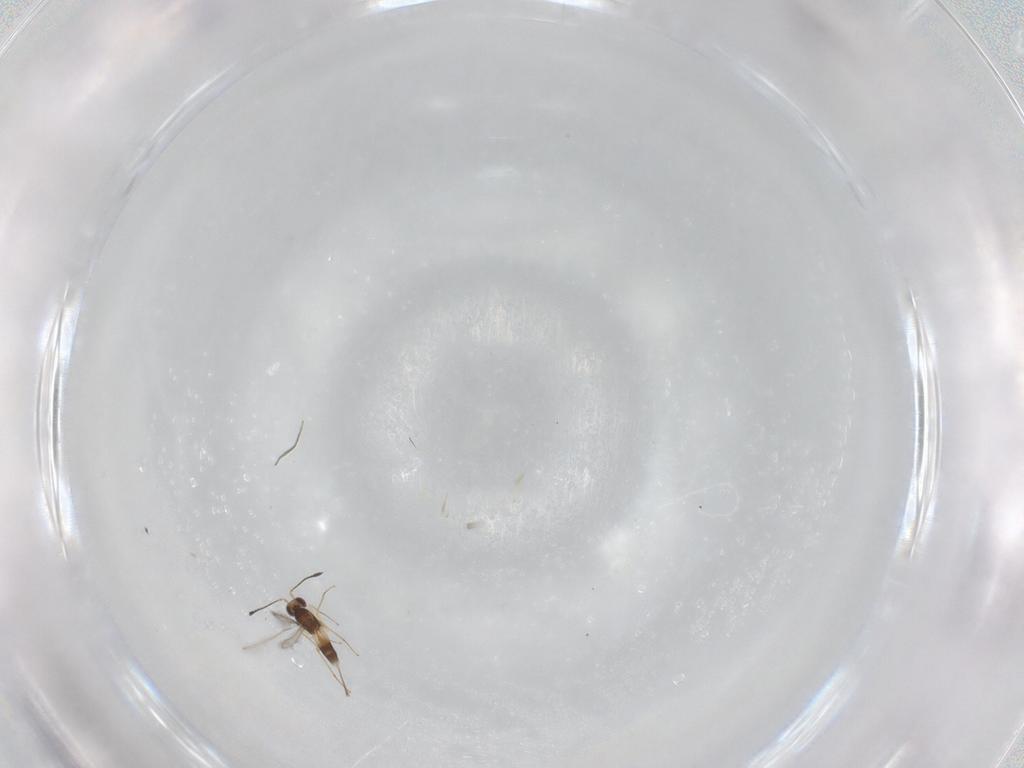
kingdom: Animalia
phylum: Arthropoda
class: Insecta
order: Hymenoptera
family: Mymaridae
